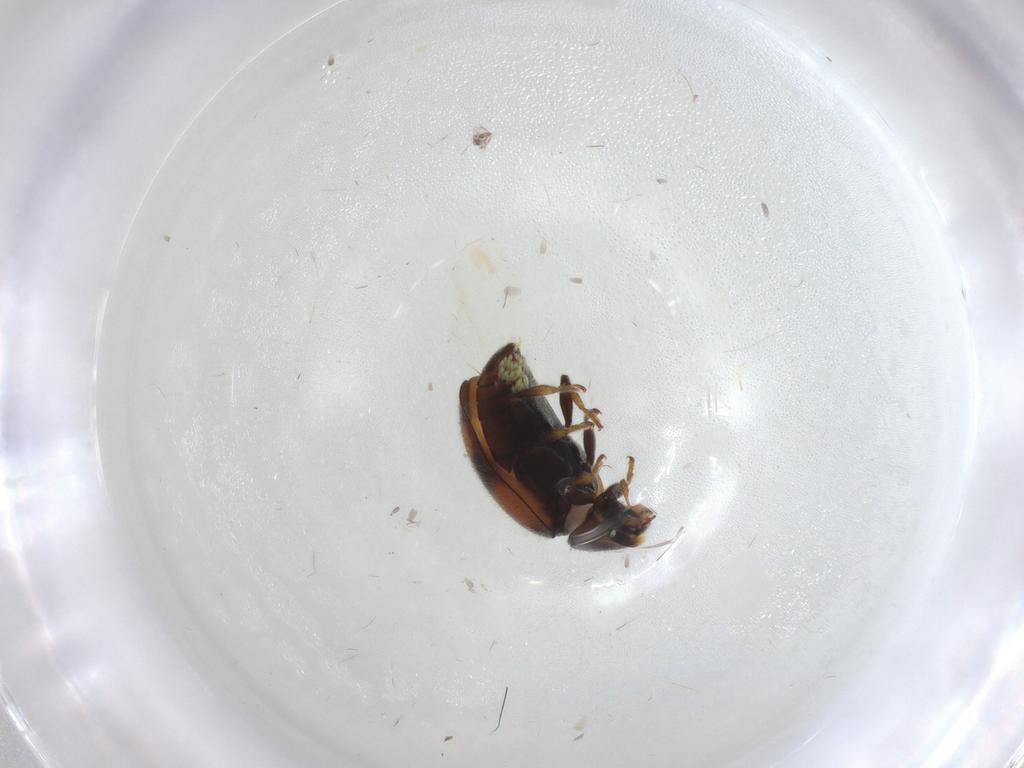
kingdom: Animalia
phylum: Arthropoda
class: Insecta
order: Coleoptera
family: Coccinellidae
